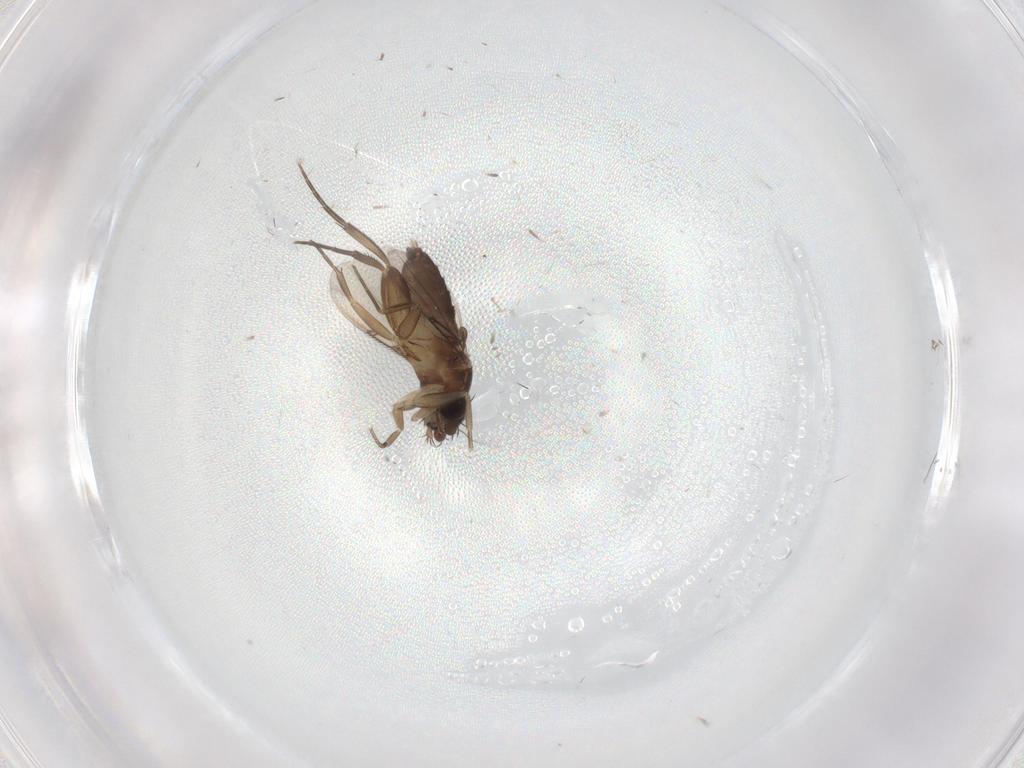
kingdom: Animalia
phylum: Arthropoda
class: Insecta
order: Diptera
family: Phoridae
